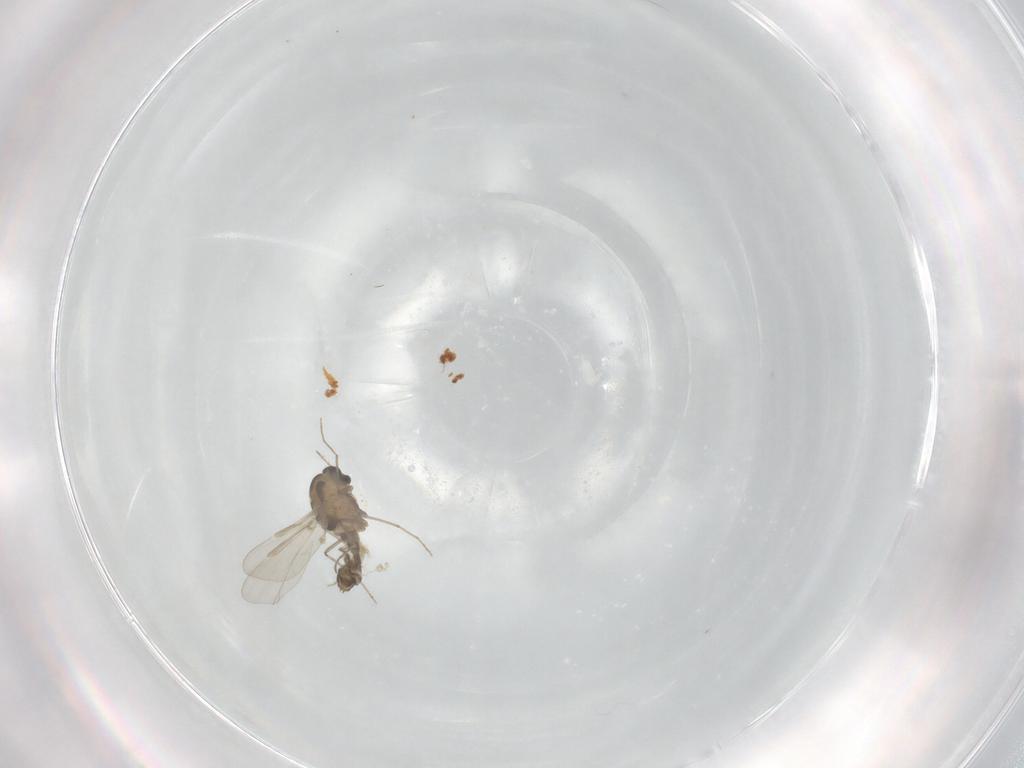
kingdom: Animalia
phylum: Arthropoda
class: Insecta
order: Diptera
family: Chironomidae
